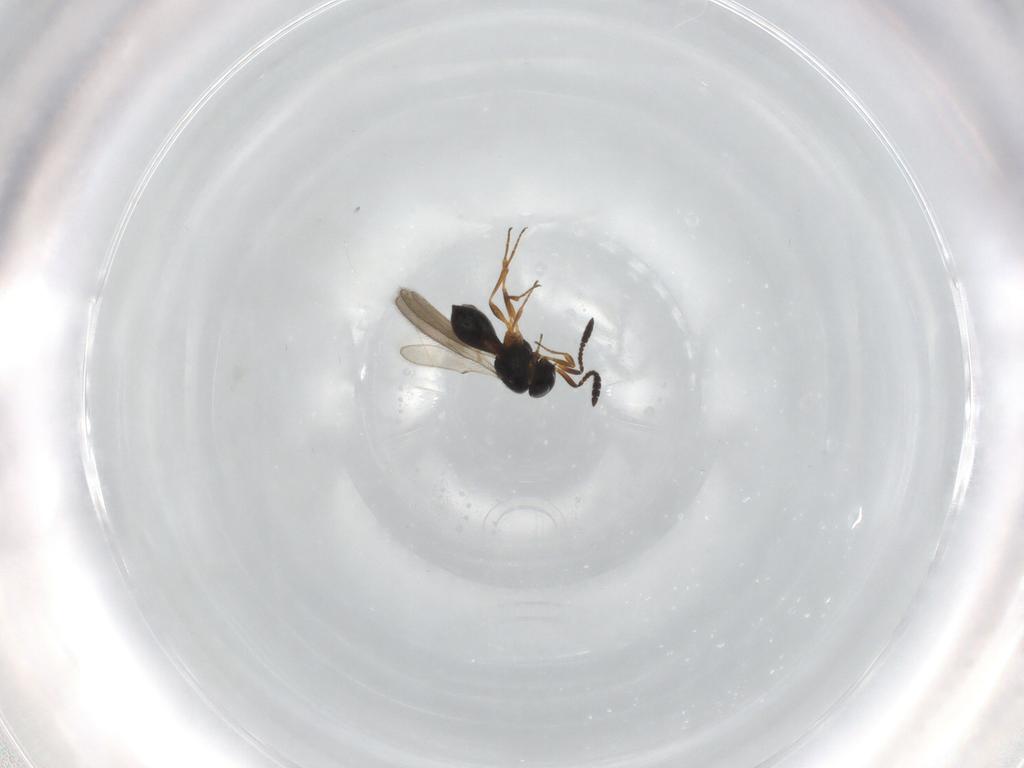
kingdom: Animalia
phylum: Arthropoda
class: Insecta
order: Hymenoptera
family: Scelionidae
